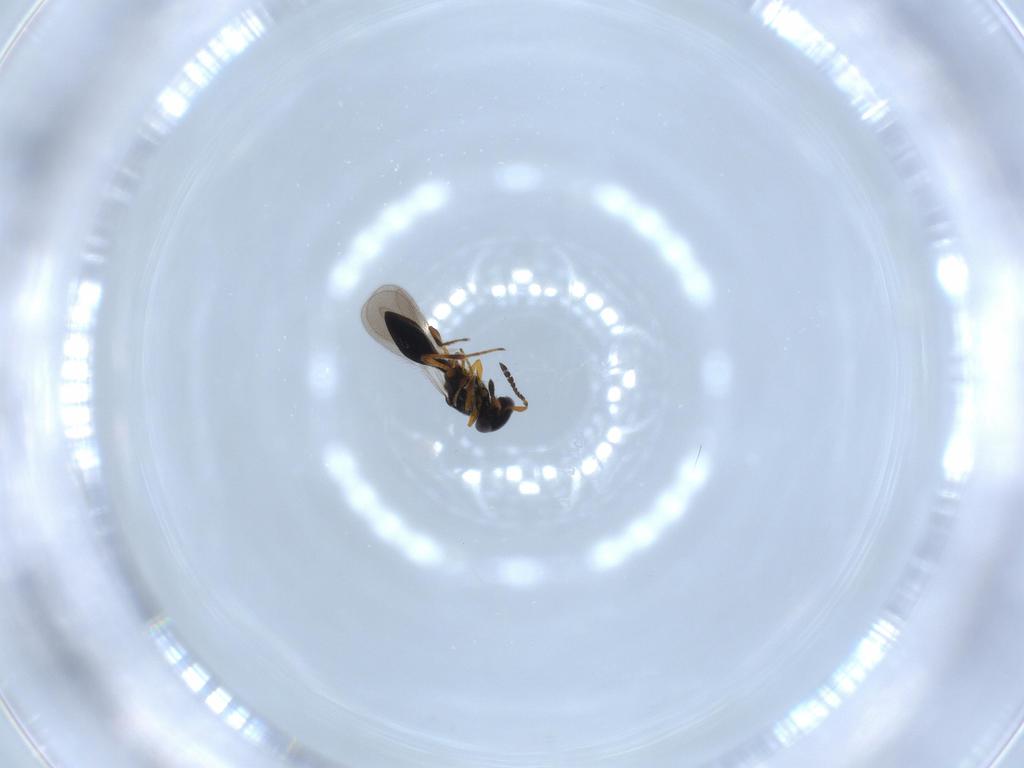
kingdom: Animalia
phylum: Arthropoda
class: Insecta
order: Hymenoptera
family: Platygastridae
